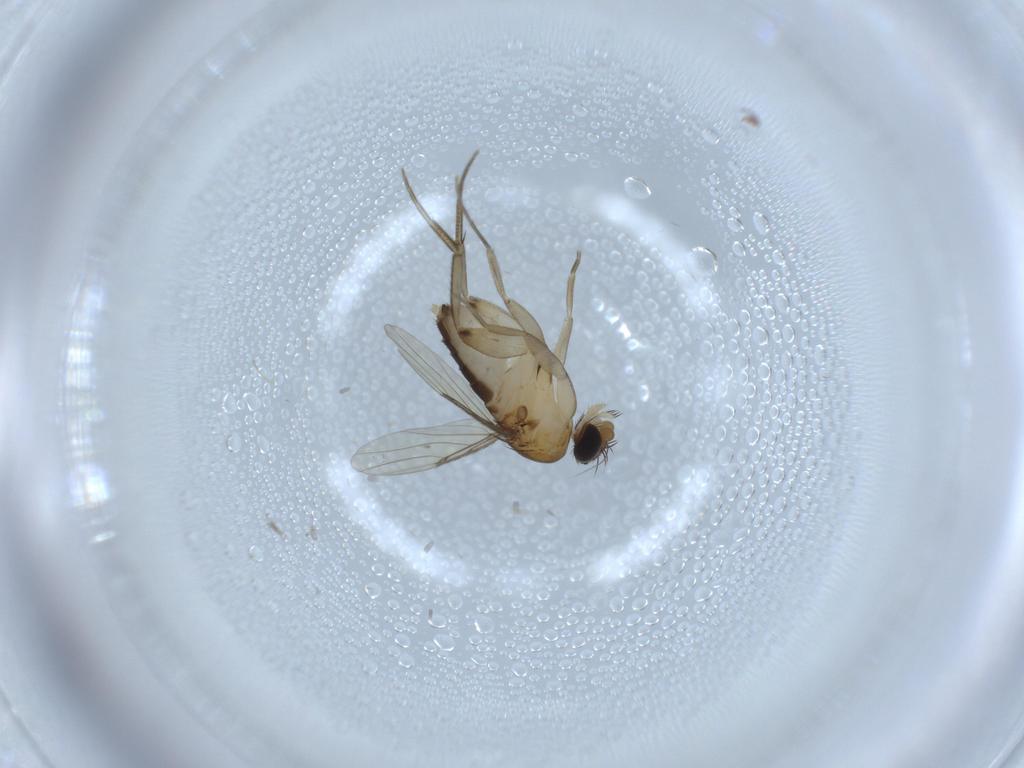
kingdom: Animalia
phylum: Arthropoda
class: Insecta
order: Diptera
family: Phoridae
